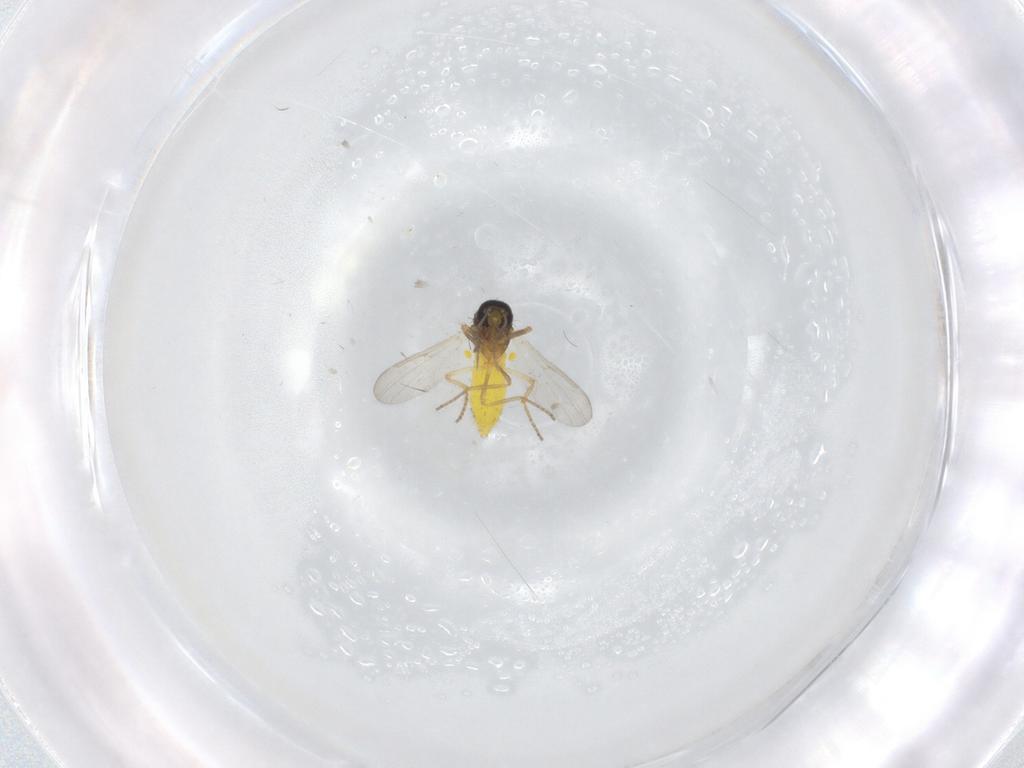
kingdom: Animalia
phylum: Arthropoda
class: Insecta
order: Diptera
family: Ceratopogonidae
